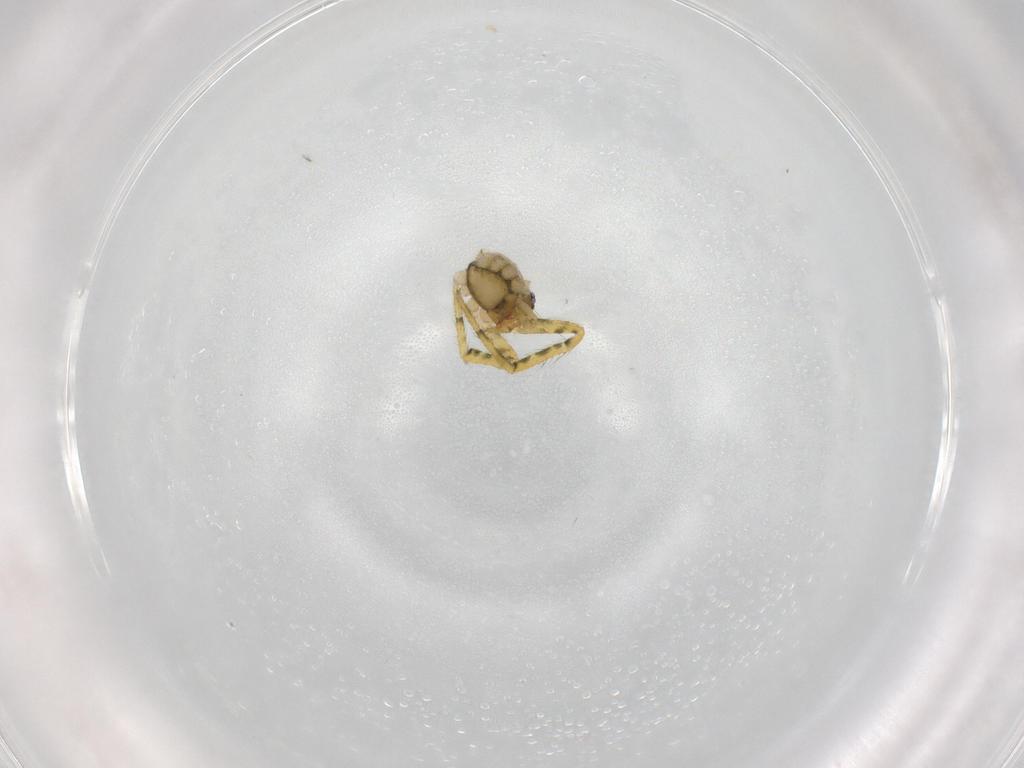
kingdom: Animalia
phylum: Arthropoda
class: Arachnida
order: Araneae
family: Theridiidae
